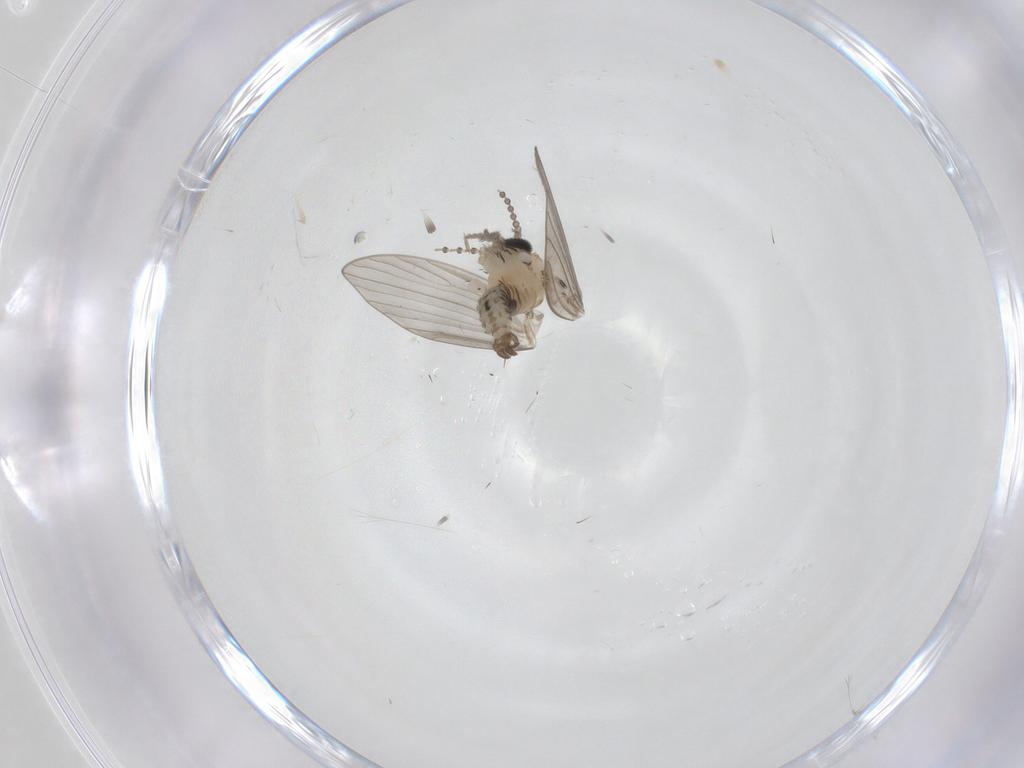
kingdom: Animalia
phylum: Arthropoda
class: Insecta
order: Diptera
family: Psychodidae
